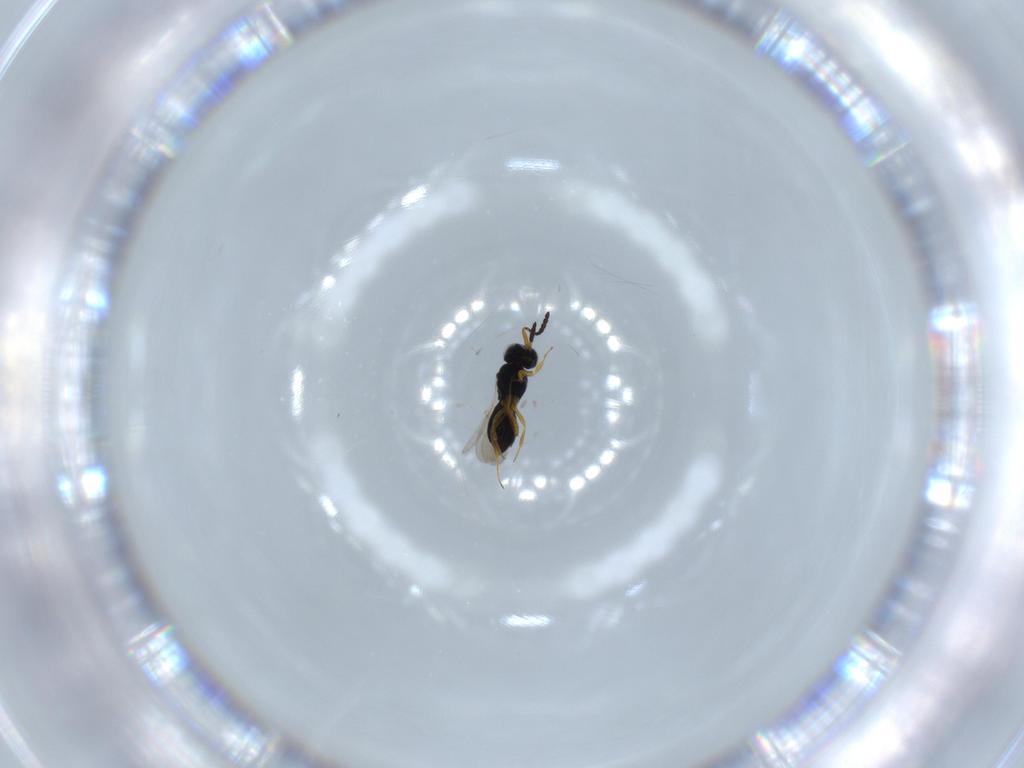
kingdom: Animalia
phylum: Arthropoda
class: Insecta
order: Hymenoptera
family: Scelionidae
